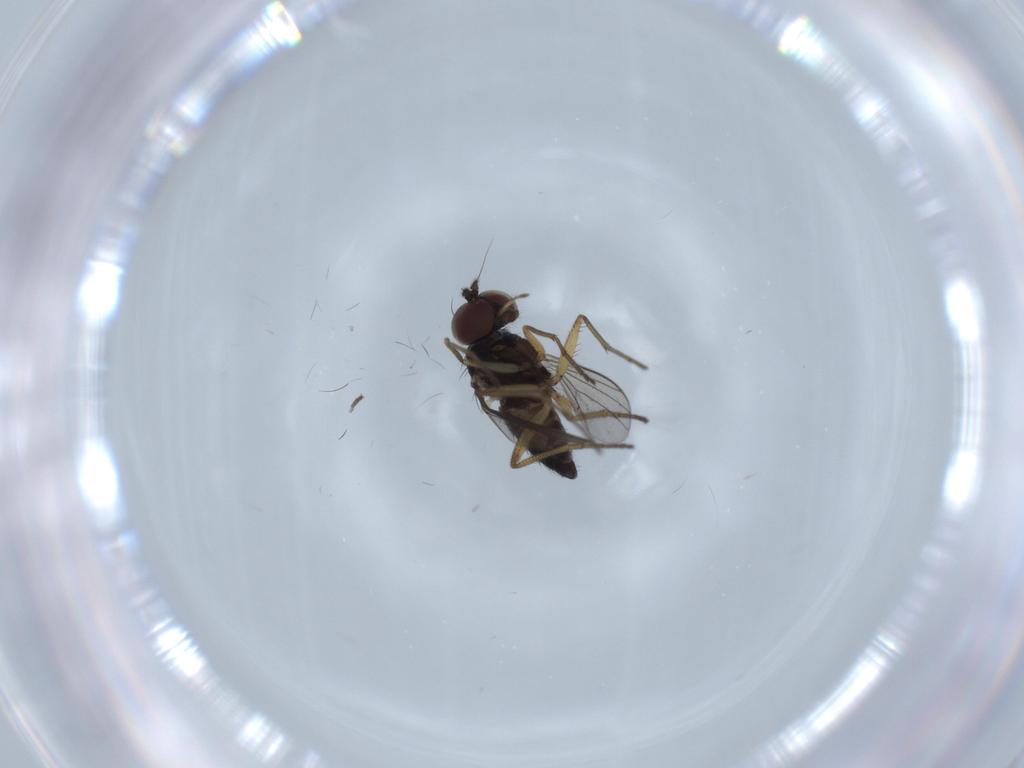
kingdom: Animalia
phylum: Arthropoda
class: Insecta
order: Diptera
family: Dolichopodidae
